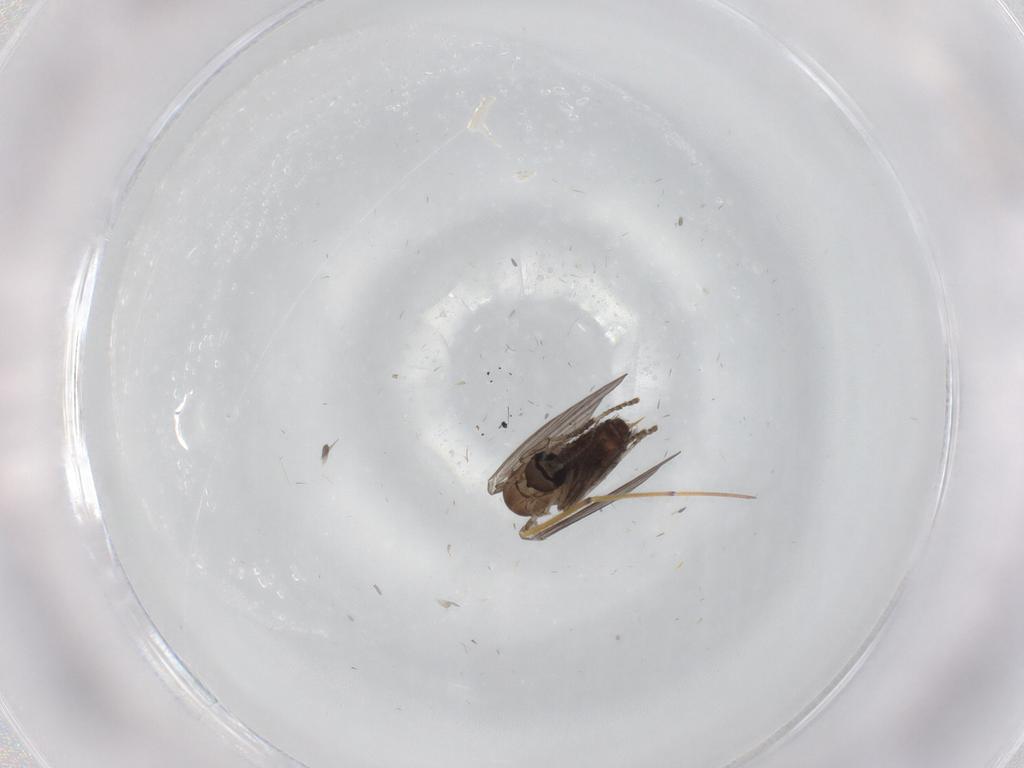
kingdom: Animalia
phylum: Arthropoda
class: Insecta
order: Diptera
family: Psychodidae
